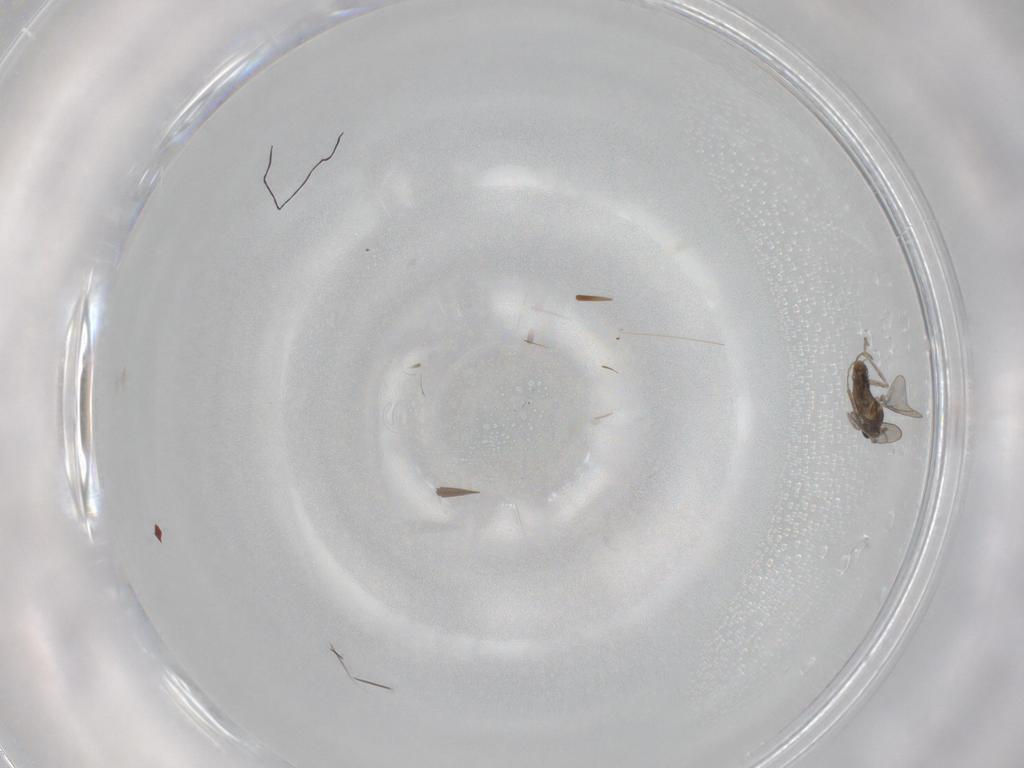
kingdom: Animalia
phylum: Arthropoda
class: Insecta
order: Diptera
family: Cecidomyiidae
